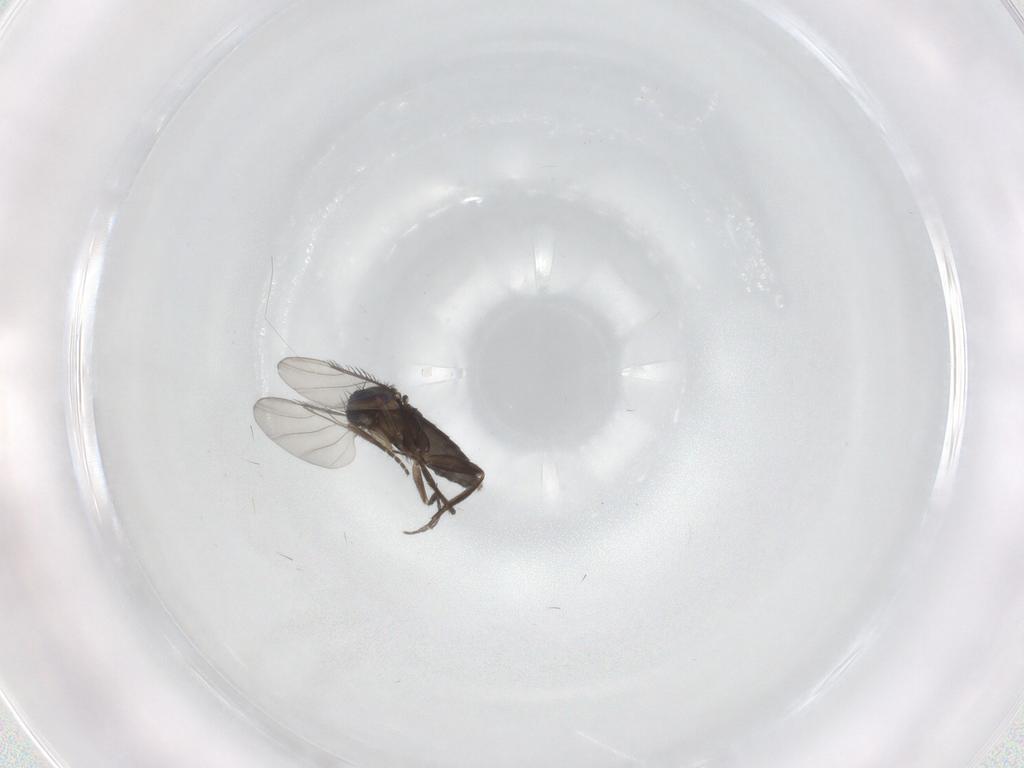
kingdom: Animalia
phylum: Arthropoda
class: Insecta
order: Diptera
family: Phoridae
